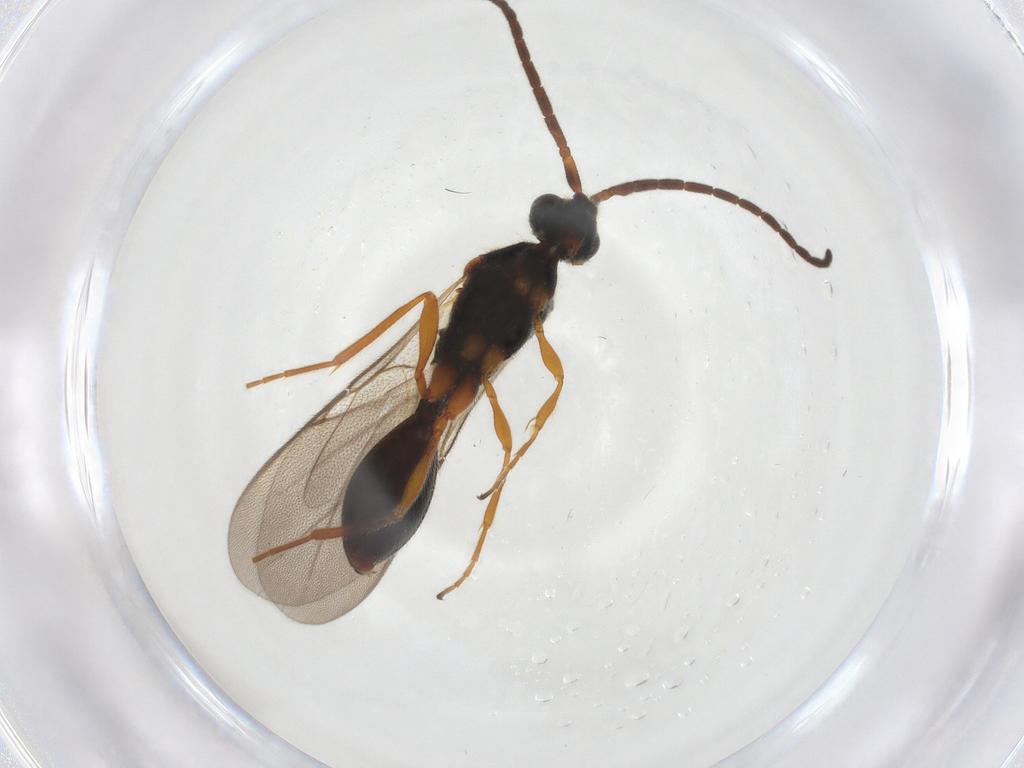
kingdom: Animalia
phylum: Arthropoda
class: Insecta
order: Hymenoptera
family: Diapriidae
